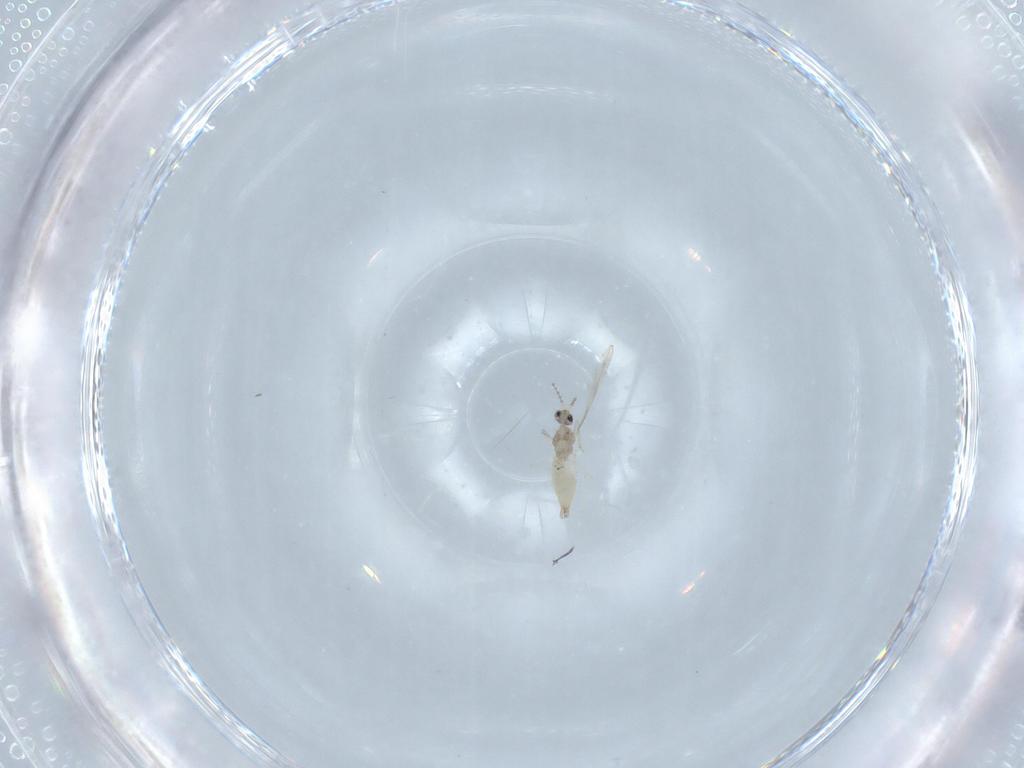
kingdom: Animalia
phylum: Arthropoda
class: Insecta
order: Diptera
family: Cecidomyiidae
